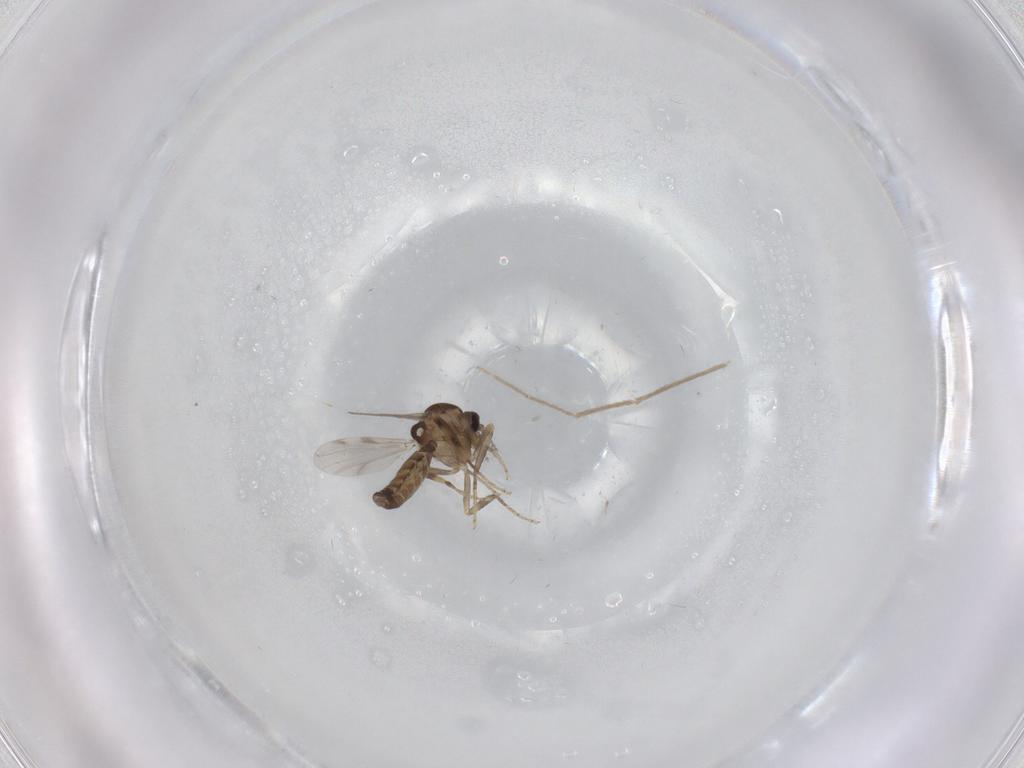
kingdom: Animalia
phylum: Arthropoda
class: Insecta
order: Diptera
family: Ceratopogonidae
